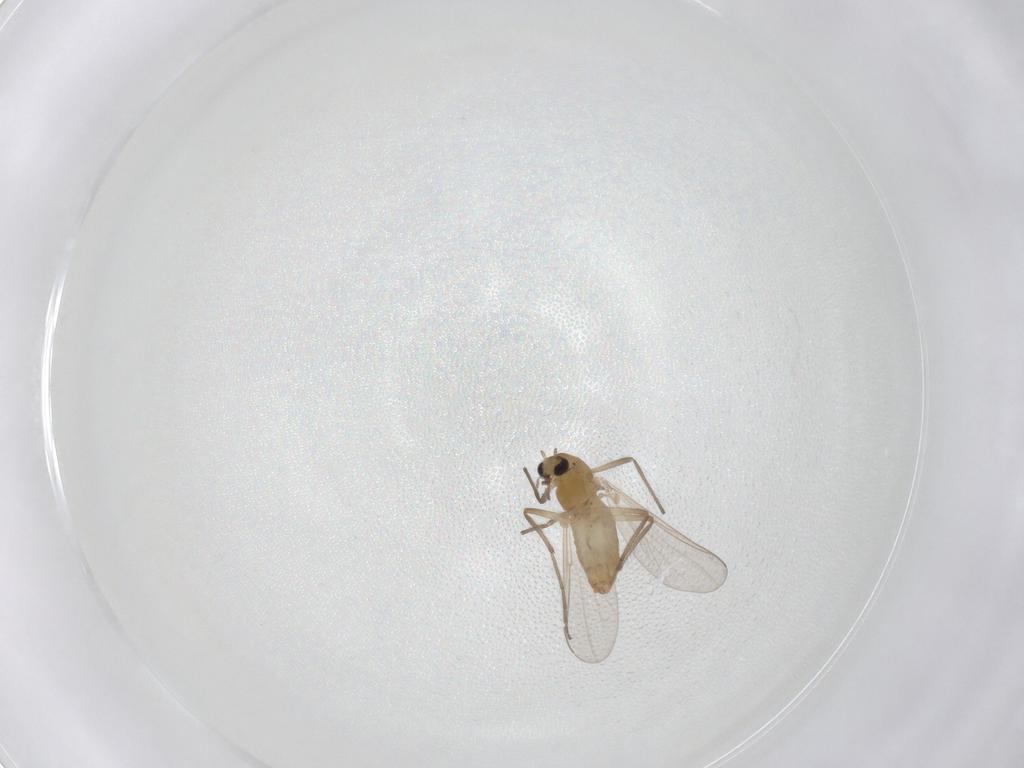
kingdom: Animalia
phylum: Arthropoda
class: Insecta
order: Diptera
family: Chironomidae
